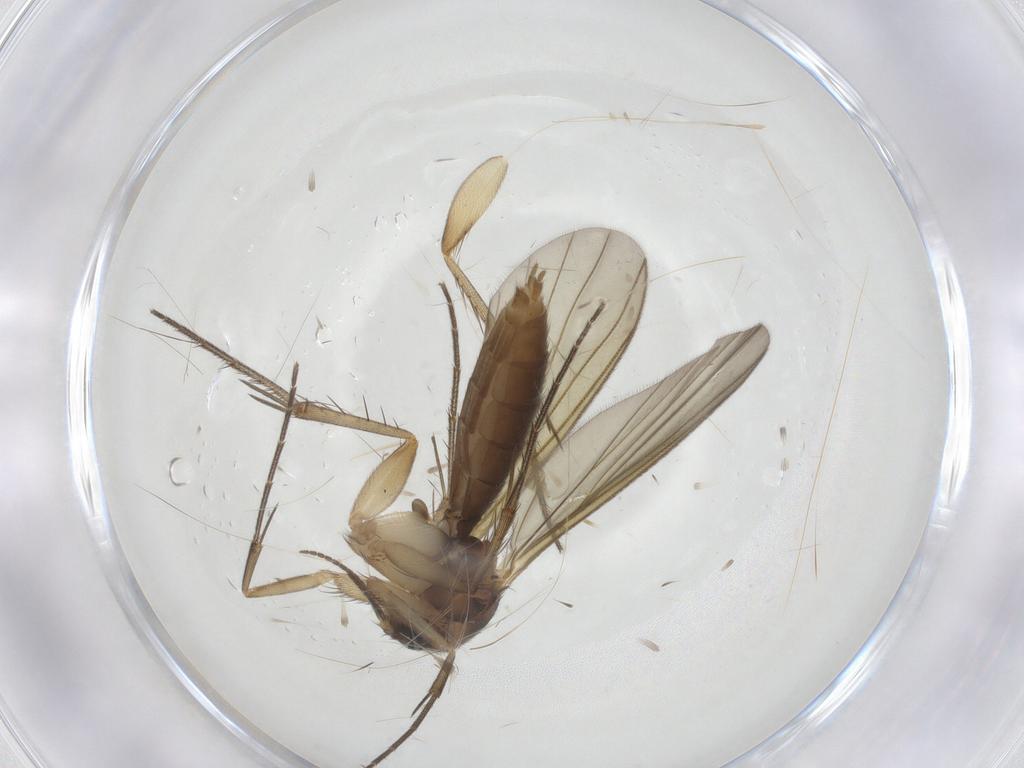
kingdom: Animalia
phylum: Arthropoda
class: Insecta
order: Diptera
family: Mycetophilidae
